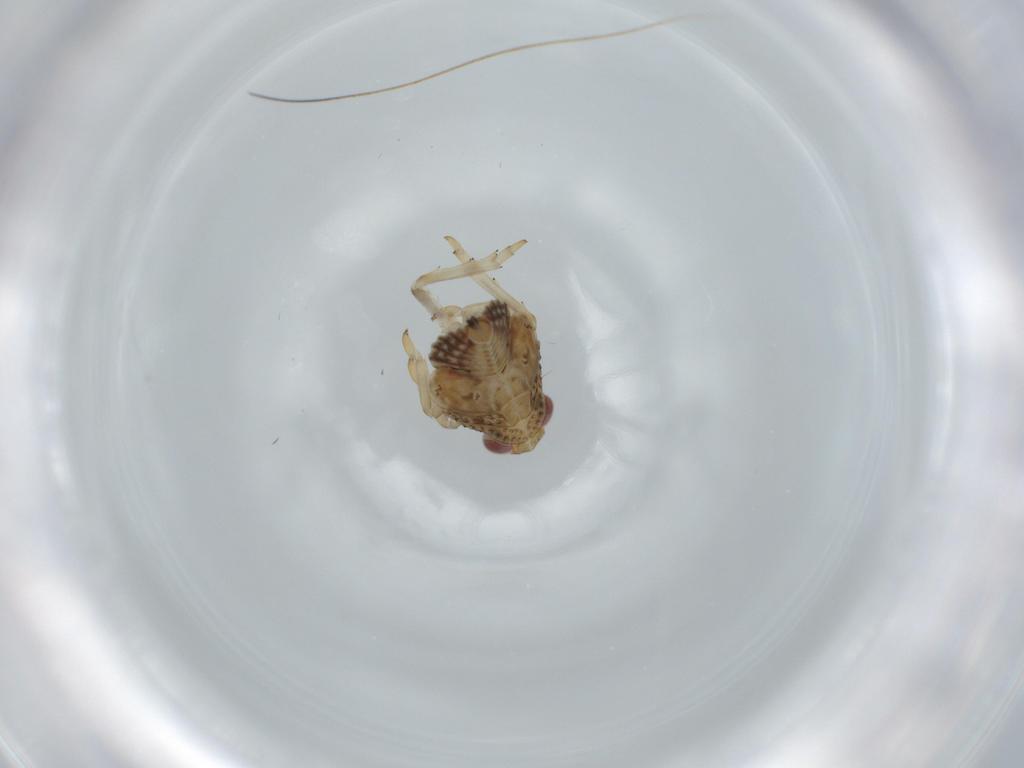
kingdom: Animalia
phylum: Arthropoda
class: Insecta
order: Hemiptera
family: Issidae
